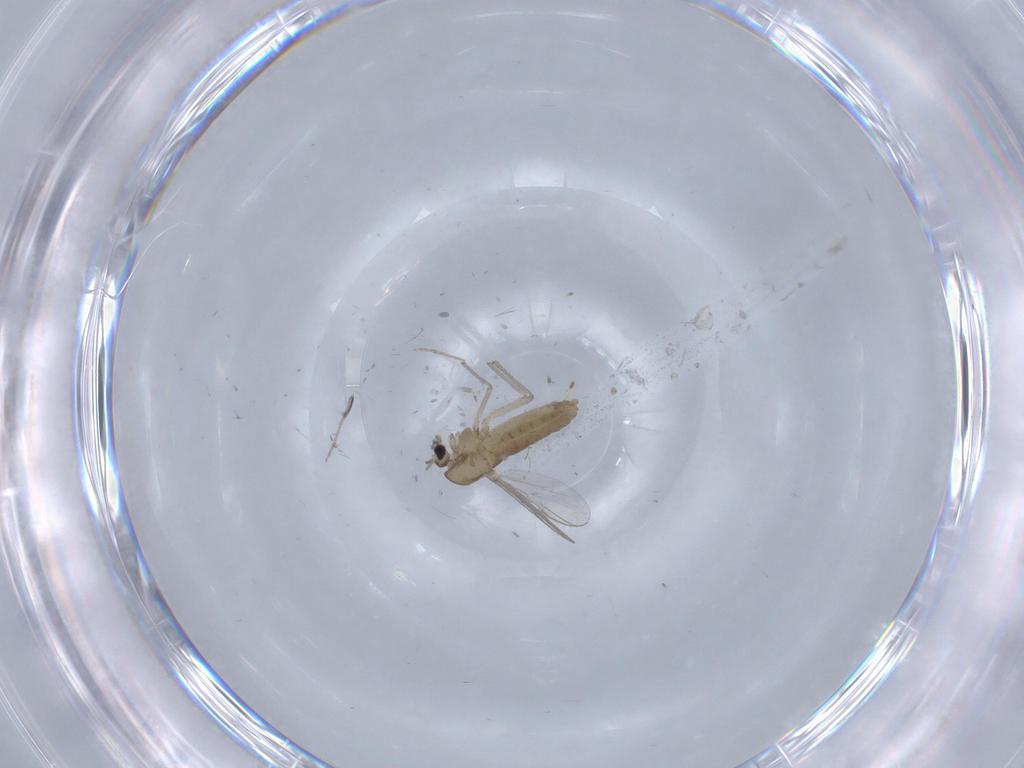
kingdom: Animalia
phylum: Arthropoda
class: Insecta
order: Diptera
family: Chironomidae
